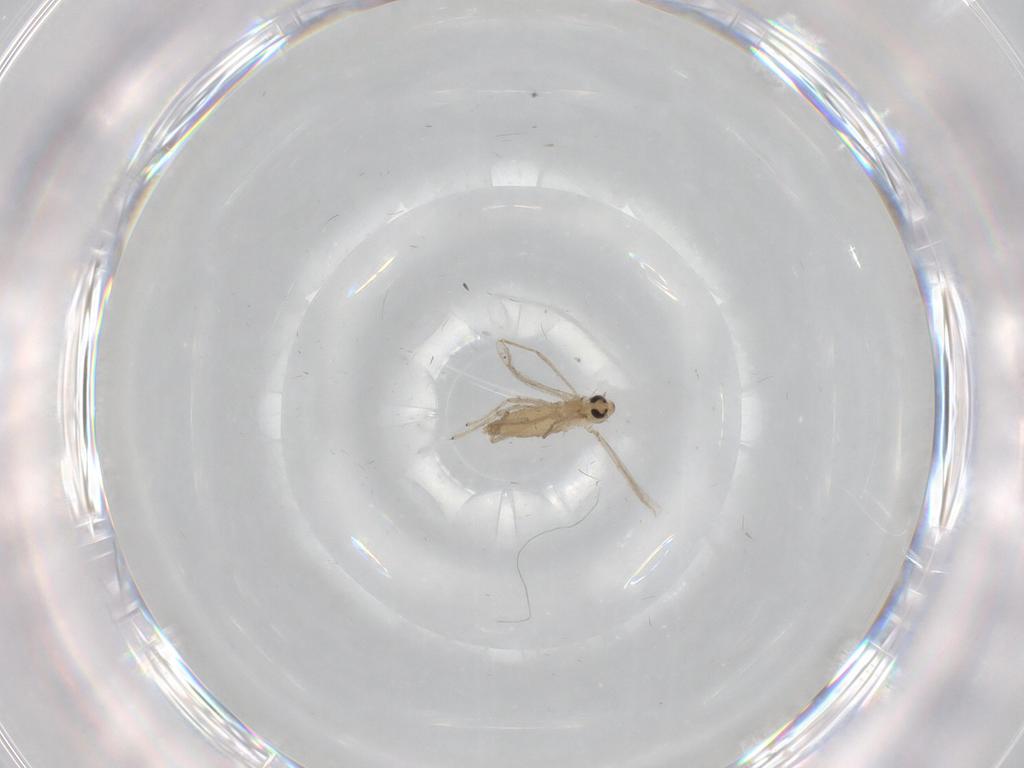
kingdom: Animalia
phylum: Arthropoda
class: Insecta
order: Diptera
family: Chironomidae
